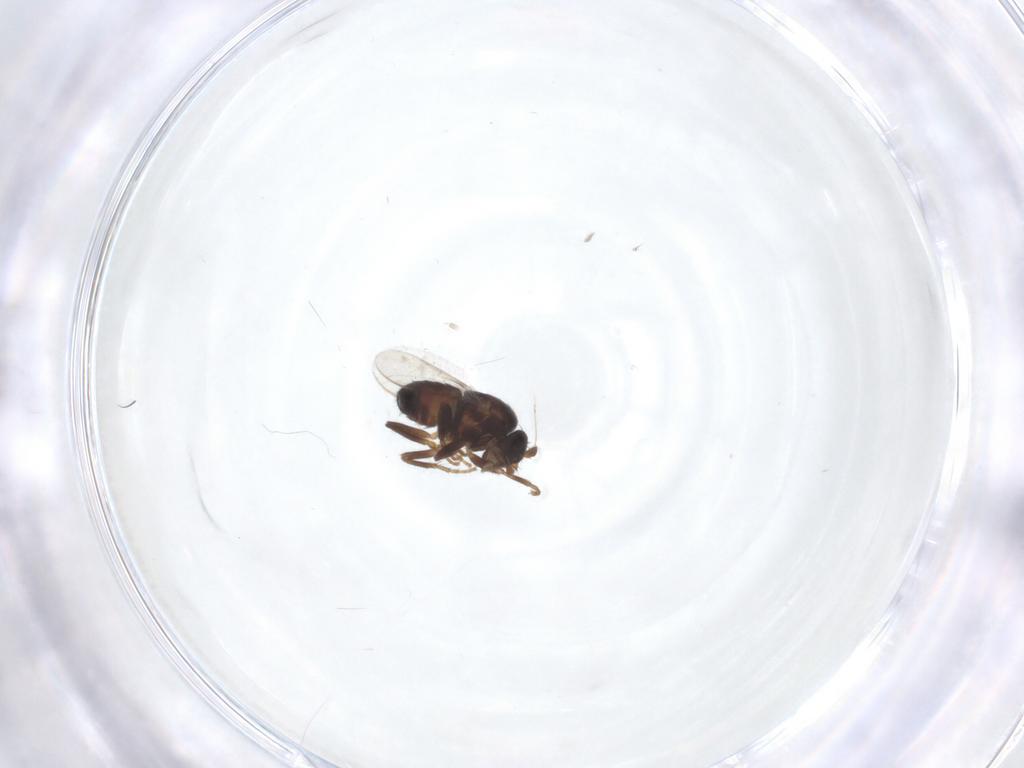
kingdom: Animalia
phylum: Arthropoda
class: Insecta
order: Diptera
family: Sphaeroceridae
